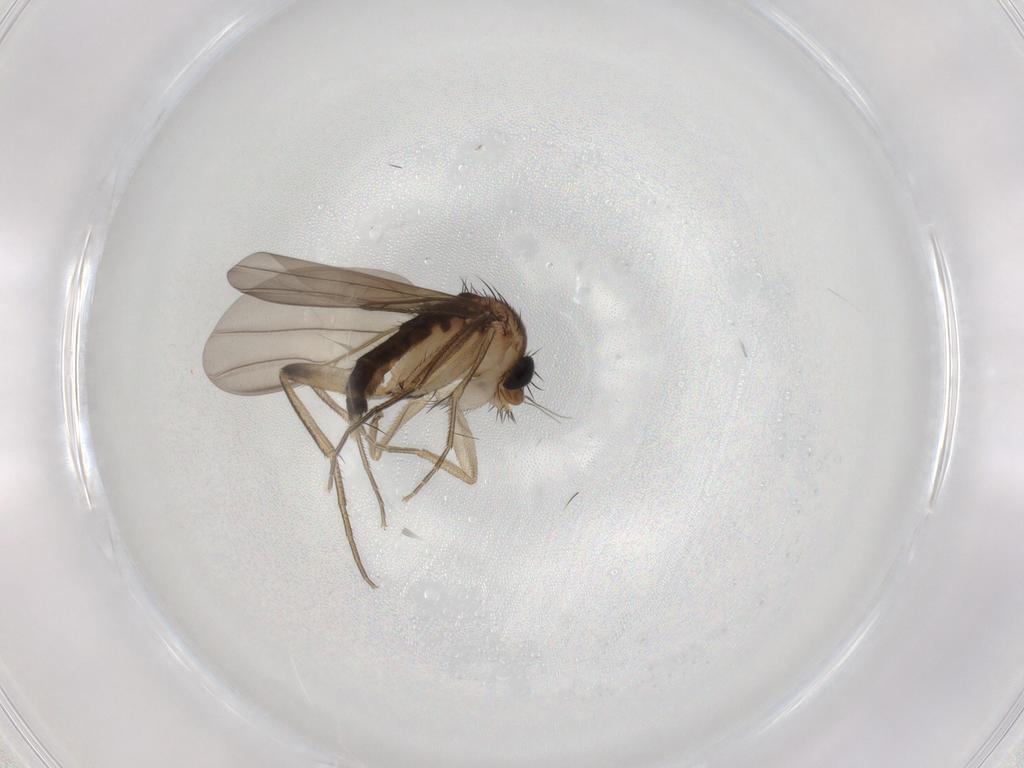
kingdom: Animalia
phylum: Arthropoda
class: Insecta
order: Diptera
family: Phoridae
